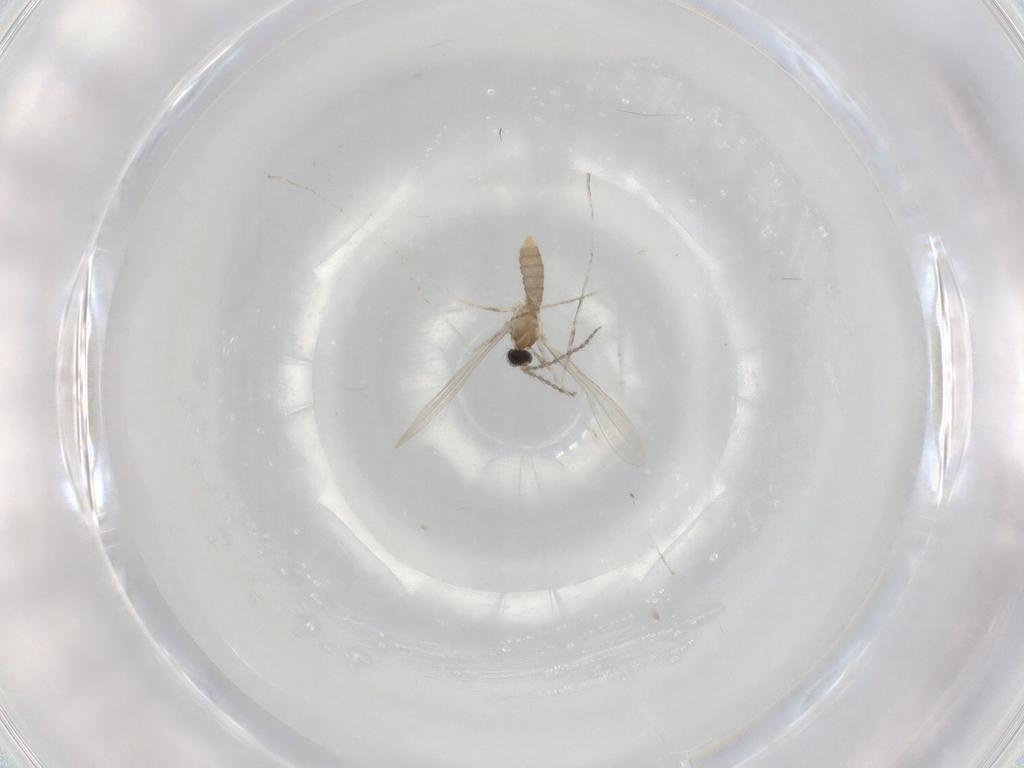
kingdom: Animalia
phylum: Arthropoda
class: Insecta
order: Diptera
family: Cecidomyiidae
